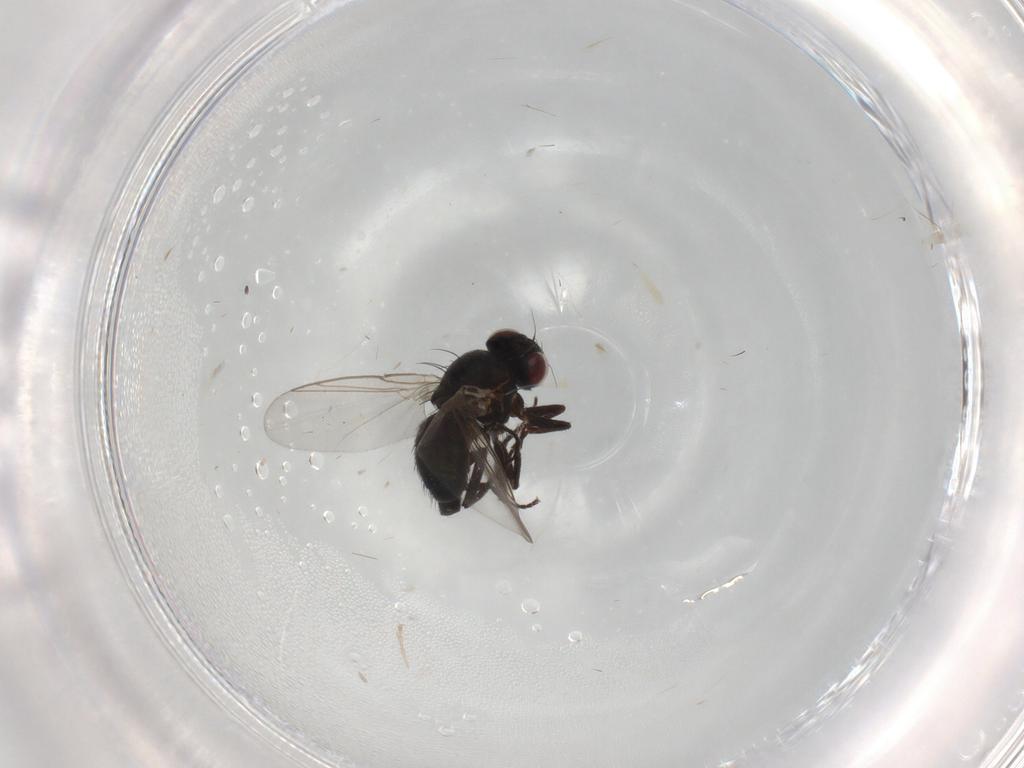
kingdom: Animalia
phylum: Arthropoda
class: Insecta
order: Diptera
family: Cecidomyiidae
